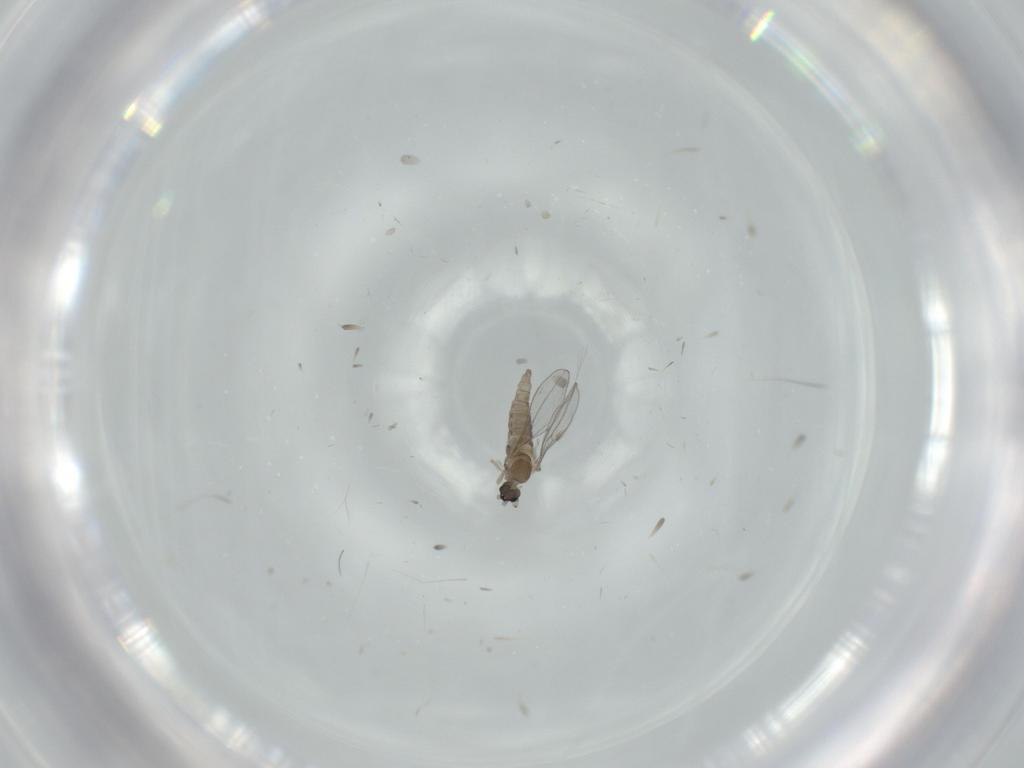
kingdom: Animalia
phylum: Arthropoda
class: Insecta
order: Diptera
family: Cecidomyiidae
